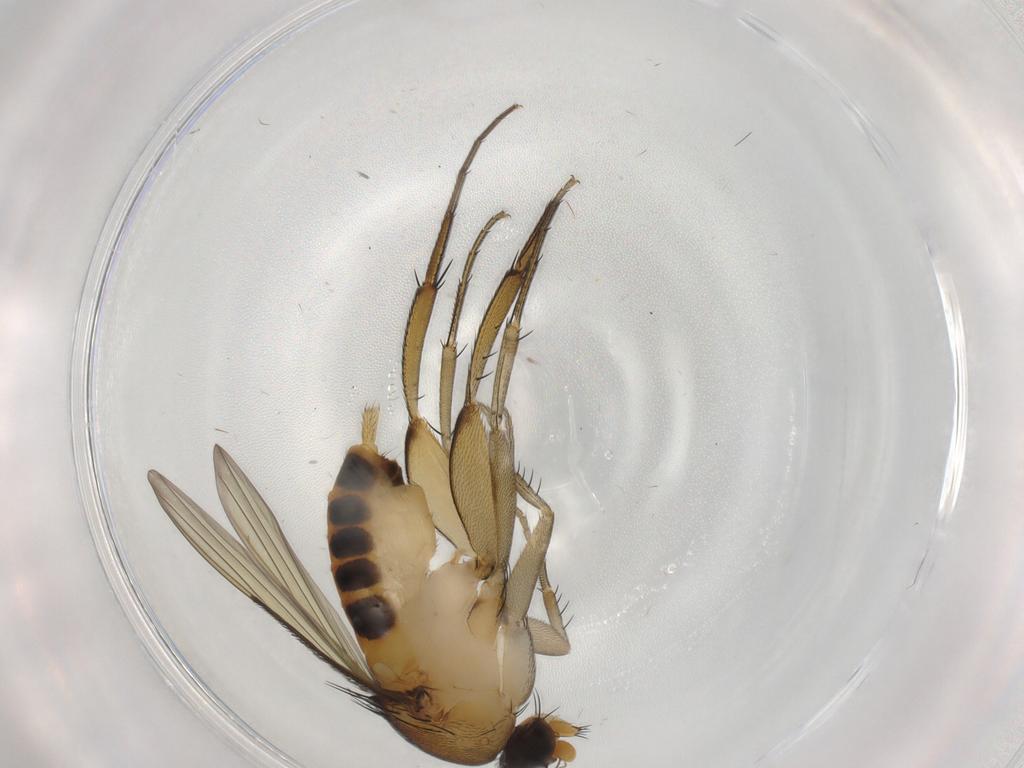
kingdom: Animalia
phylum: Arthropoda
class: Insecta
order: Diptera
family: Phoridae
